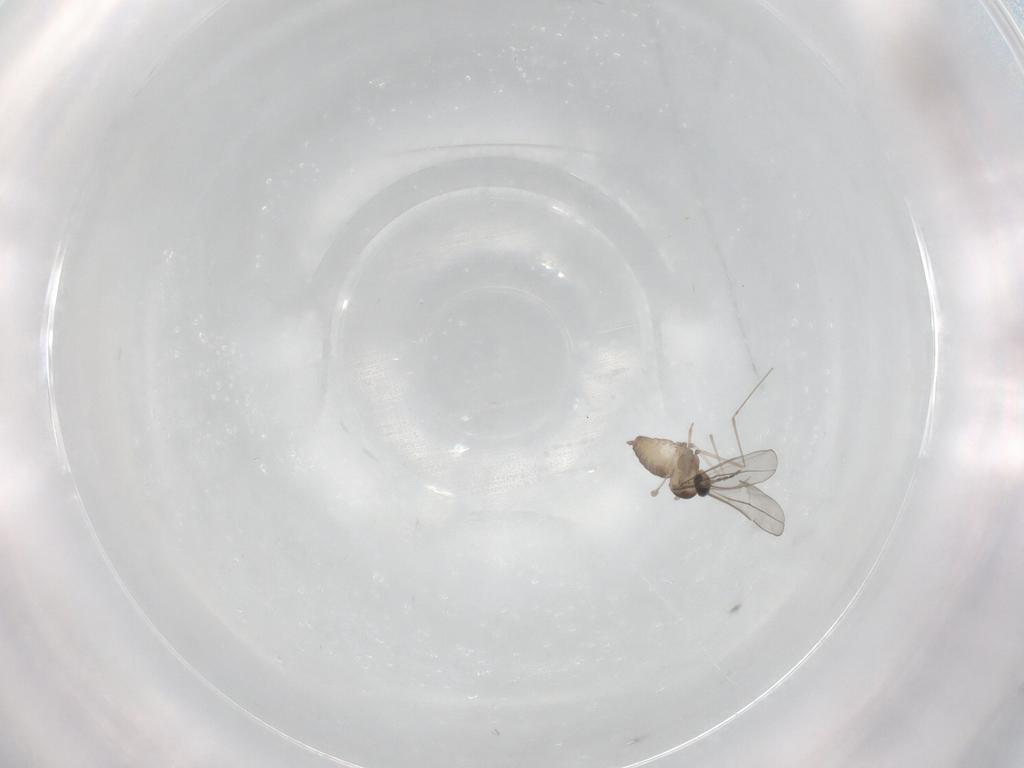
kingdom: Animalia
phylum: Arthropoda
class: Insecta
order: Diptera
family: Cecidomyiidae
